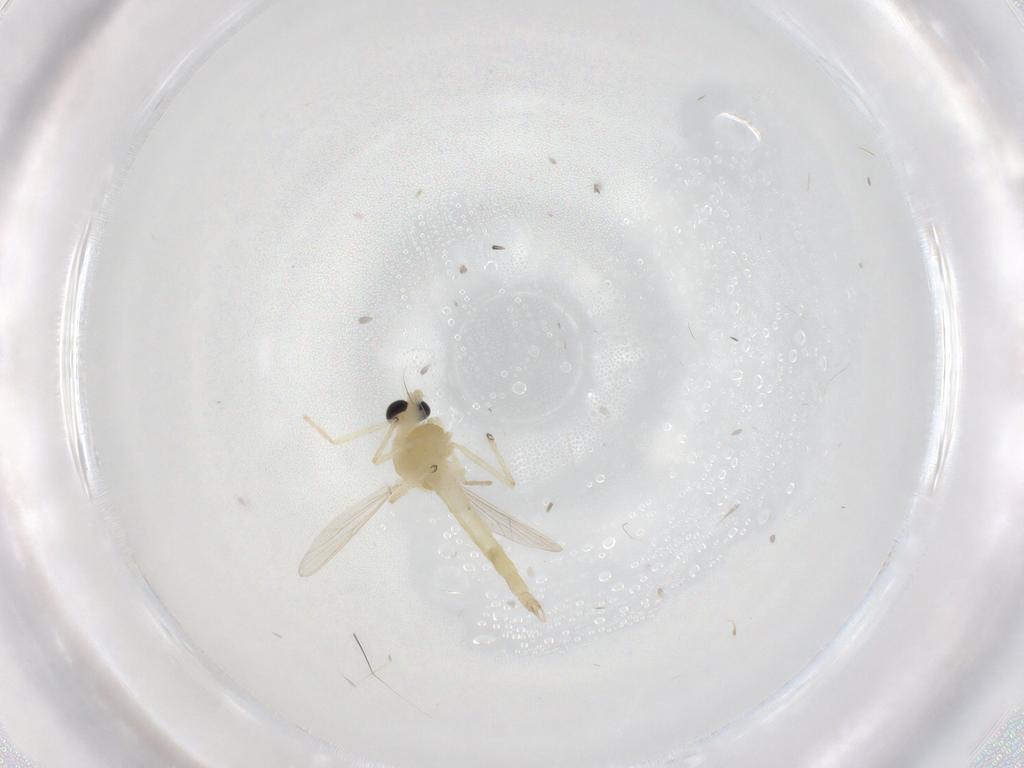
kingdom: Animalia
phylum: Arthropoda
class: Insecta
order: Diptera
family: Chironomidae
